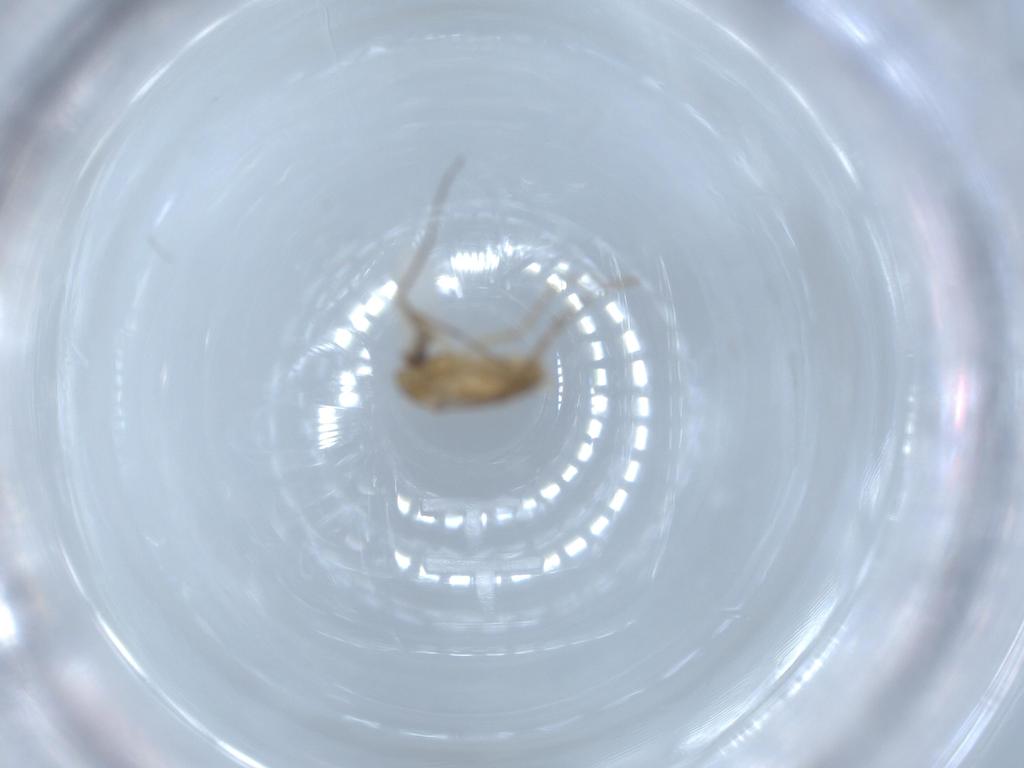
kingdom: Animalia
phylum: Arthropoda
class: Insecta
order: Diptera
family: Chironomidae
